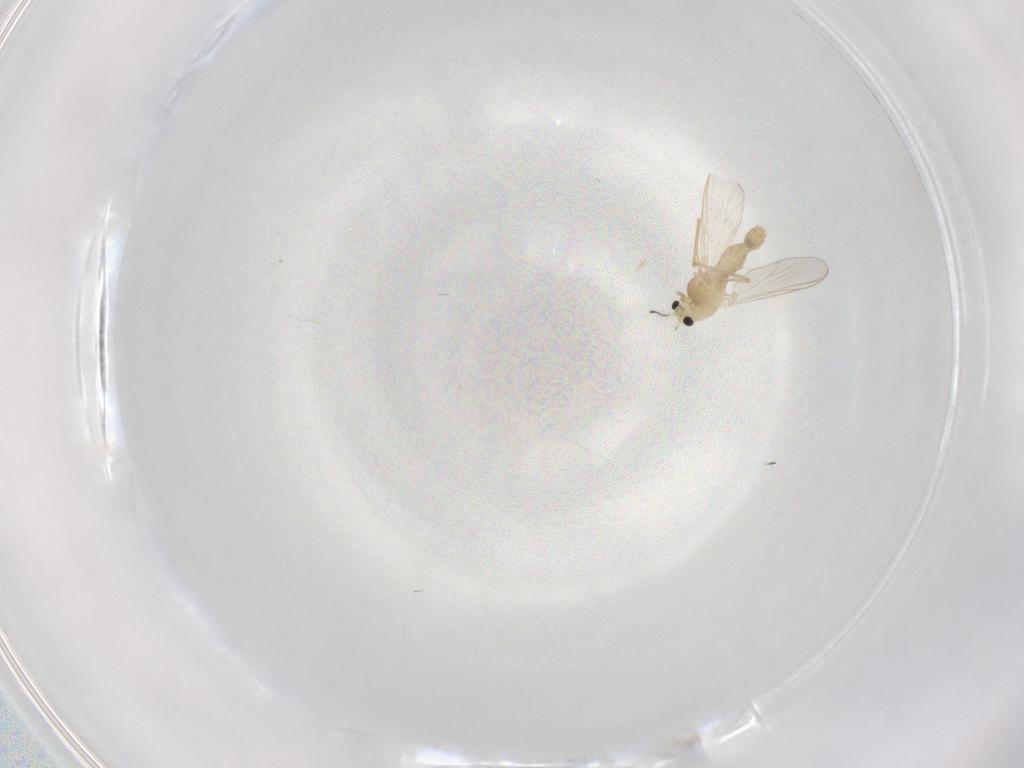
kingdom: Animalia
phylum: Arthropoda
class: Insecta
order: Diptera
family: Chironomidae
